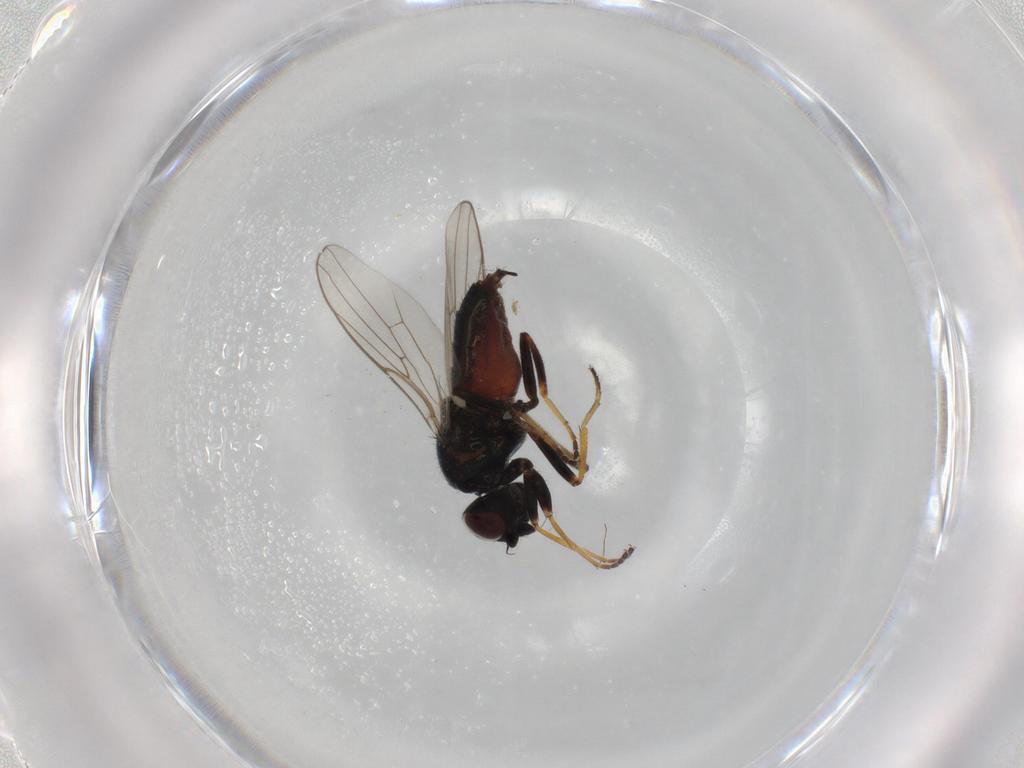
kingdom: Animalia
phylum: Arthropoda
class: Insecta
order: Diptera
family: Chloropidae
